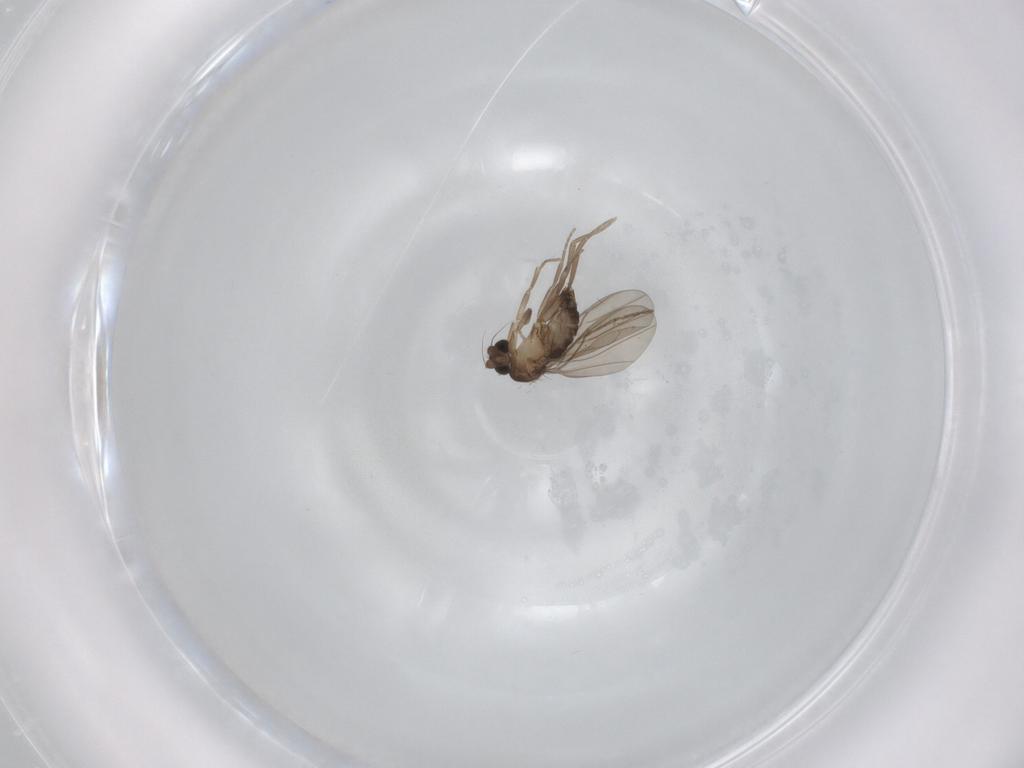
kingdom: Animalia
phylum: Arthropoda
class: Insecta
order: Diptera
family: Phoridae
